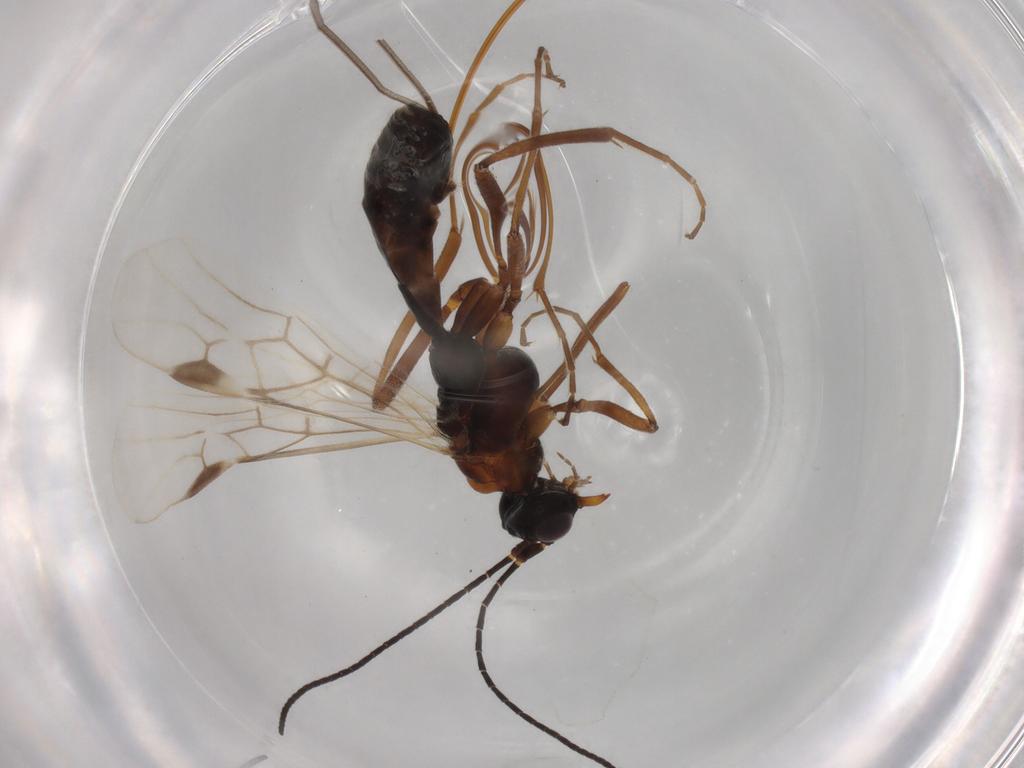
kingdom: Animalia
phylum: Arthropoda
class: Insecta
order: Hymenoptera
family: Braconidae
